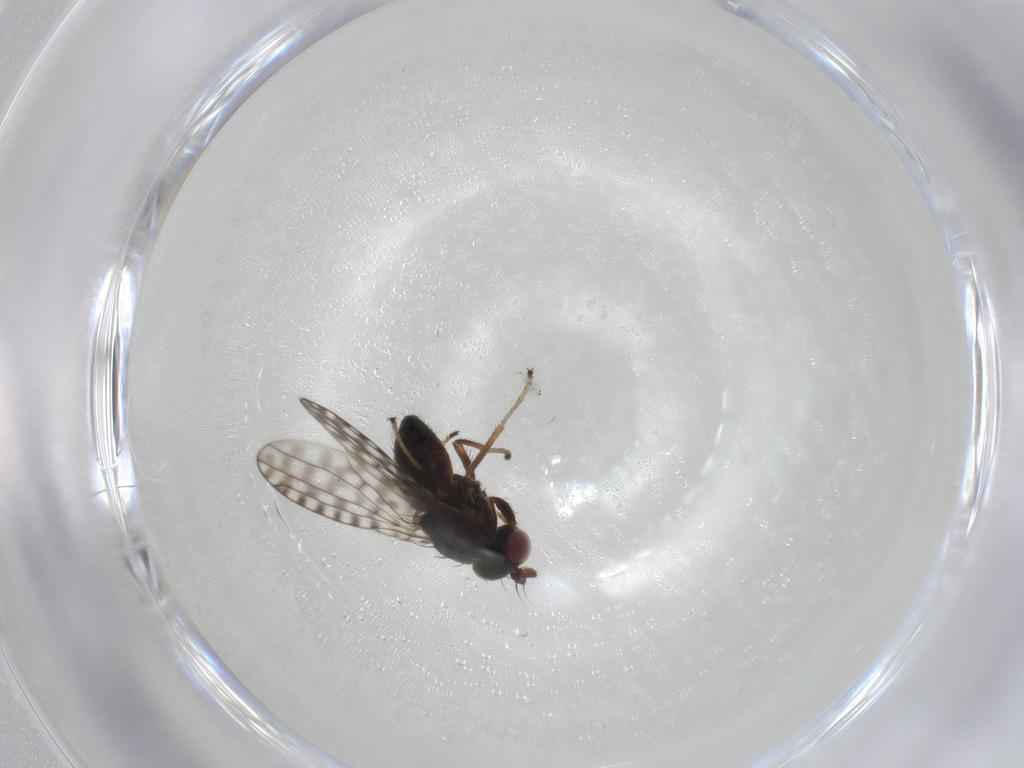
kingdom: Animalia
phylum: Arthropoda
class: Insecta
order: Diptera
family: Ephydridae
